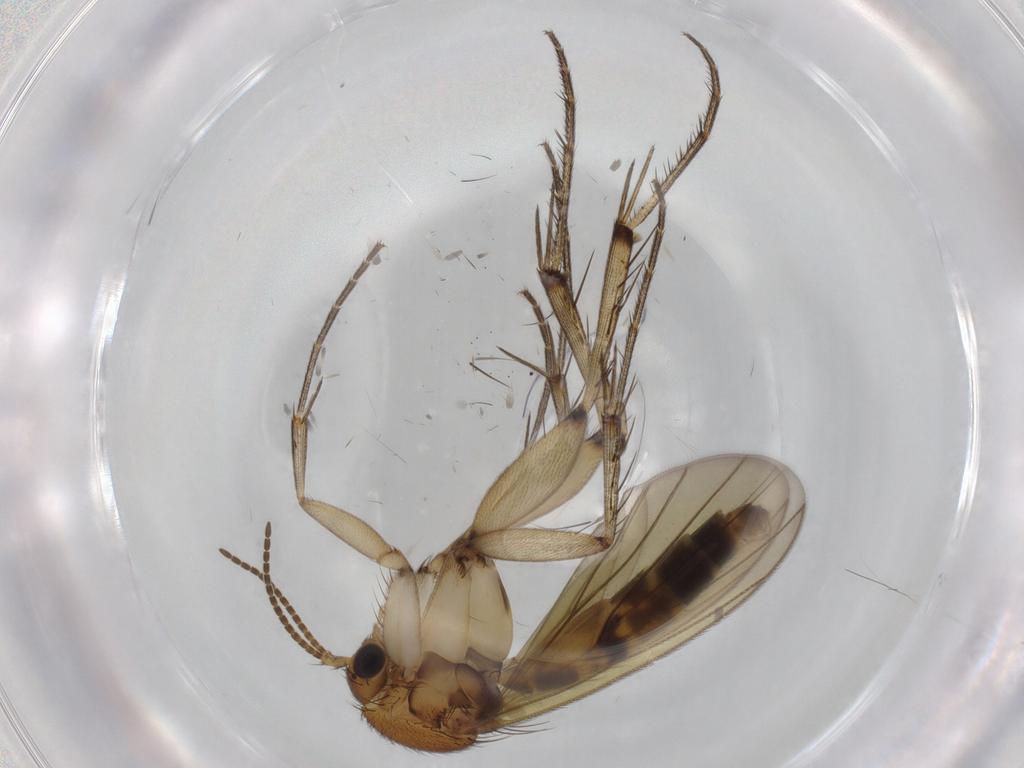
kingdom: Animalia
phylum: Arthropoda
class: Insecta
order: Diptera
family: Mycetophilidae
